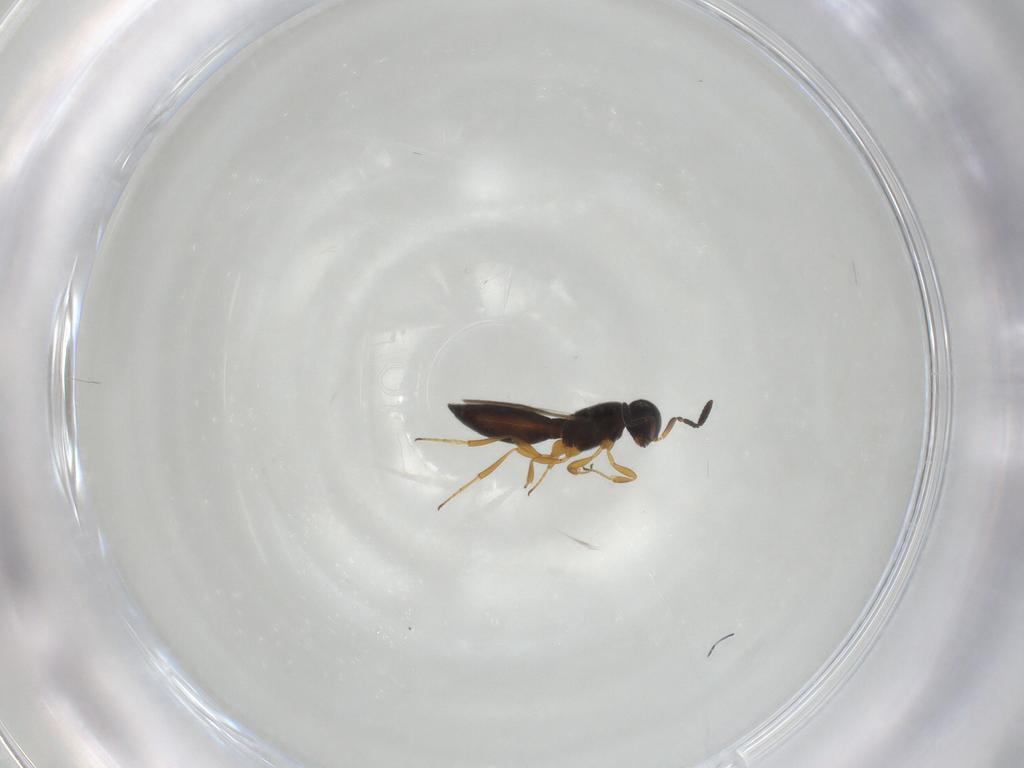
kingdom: Animalia
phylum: Arthropoda
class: Insecta
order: Hymenoptera
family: Scelionidae
